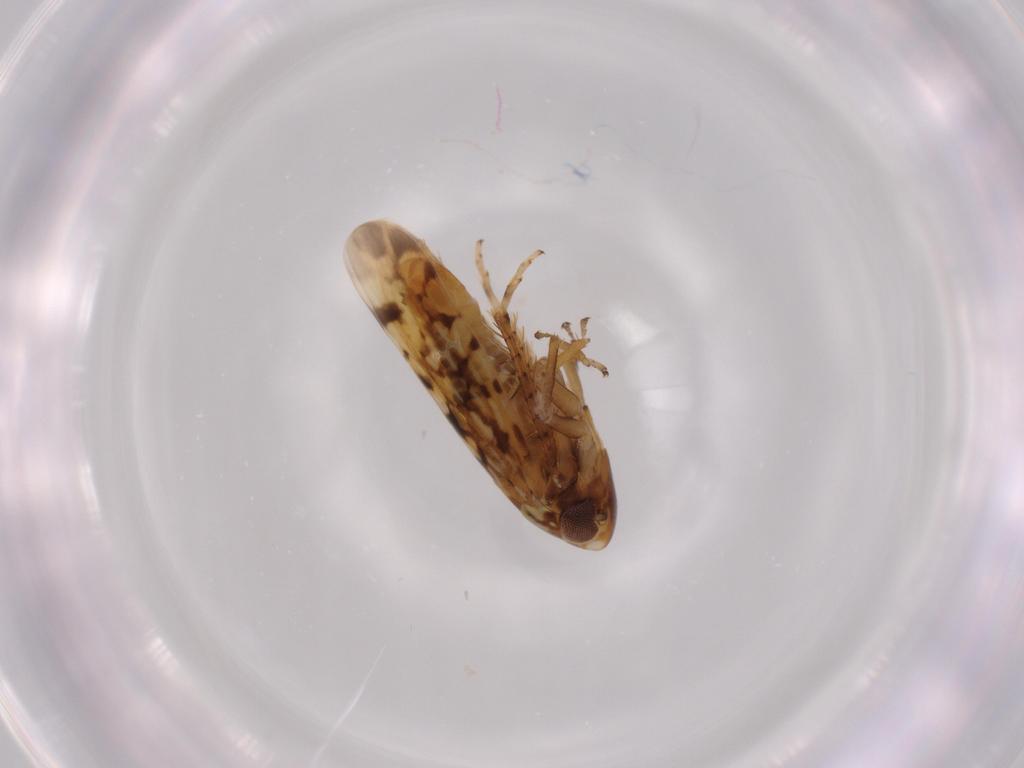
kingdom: Animalia
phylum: Arthropoda
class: Insecta
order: Hemiptera
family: Cicadellidae
